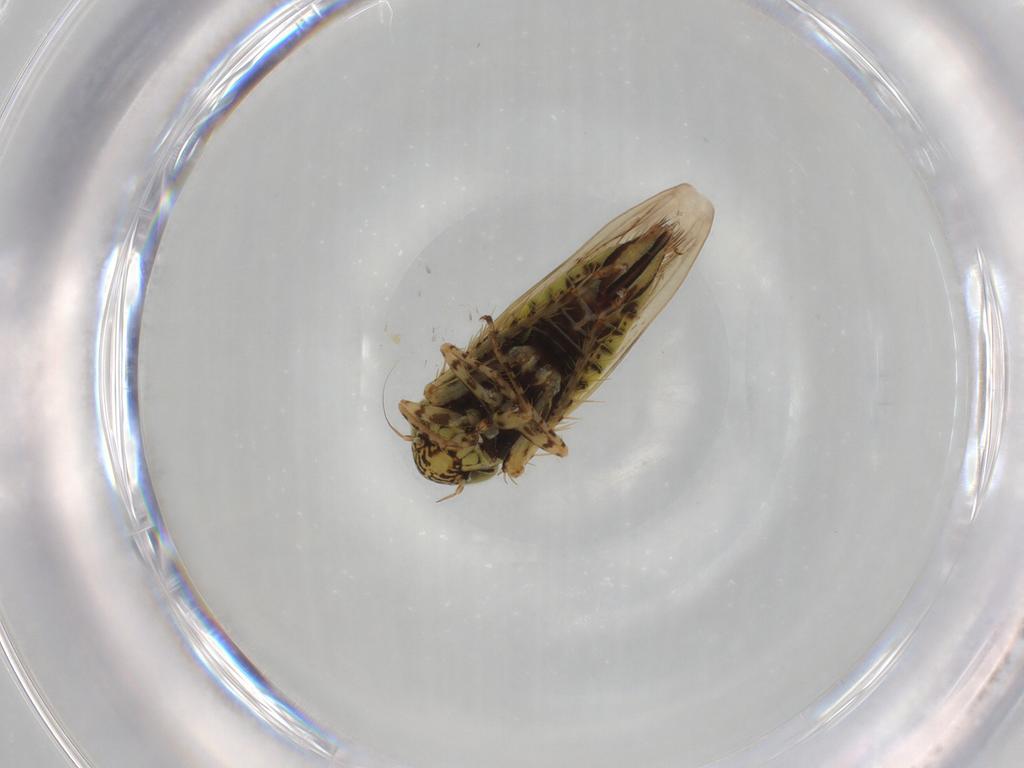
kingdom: Animalia
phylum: Arthropoda
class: Insecta
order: Hemiptera
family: Cicadellidae
